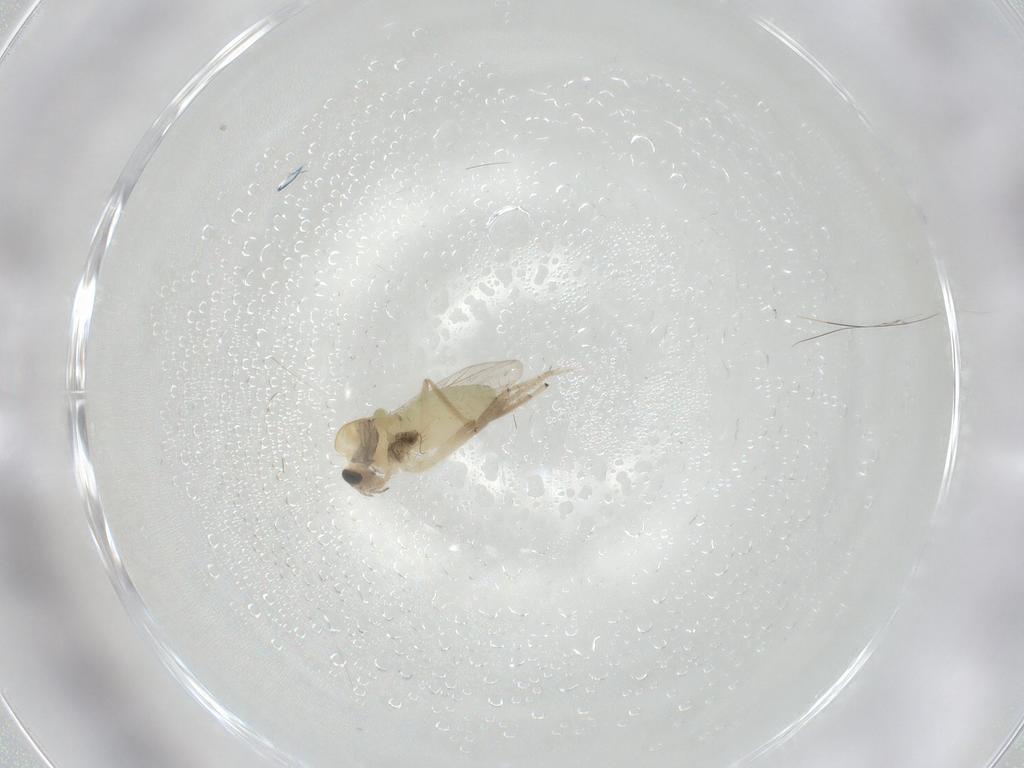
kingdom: Animalia
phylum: Arthropoda
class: Insecta
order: Diptera
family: Chironomidae
